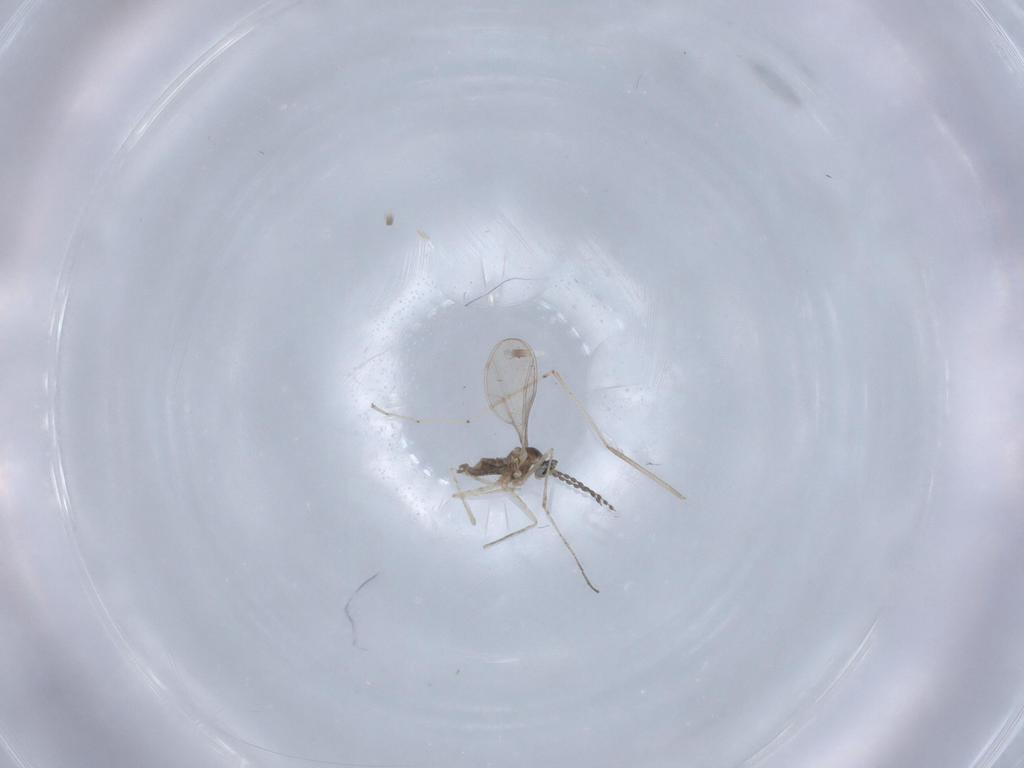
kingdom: Animalia
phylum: Arthropoda
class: Insecta
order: Diptera
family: Cecidomyiidae
